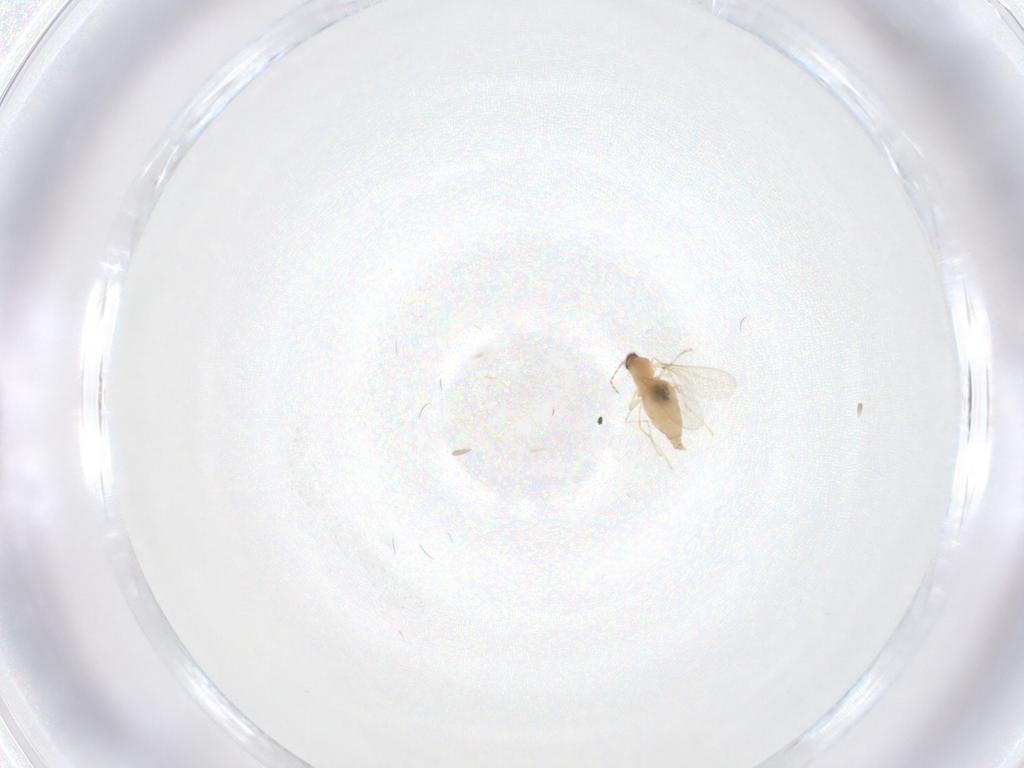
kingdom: Animalia
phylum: Arthropoda
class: Insecta
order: Diptera
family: Cecidomyiidae
